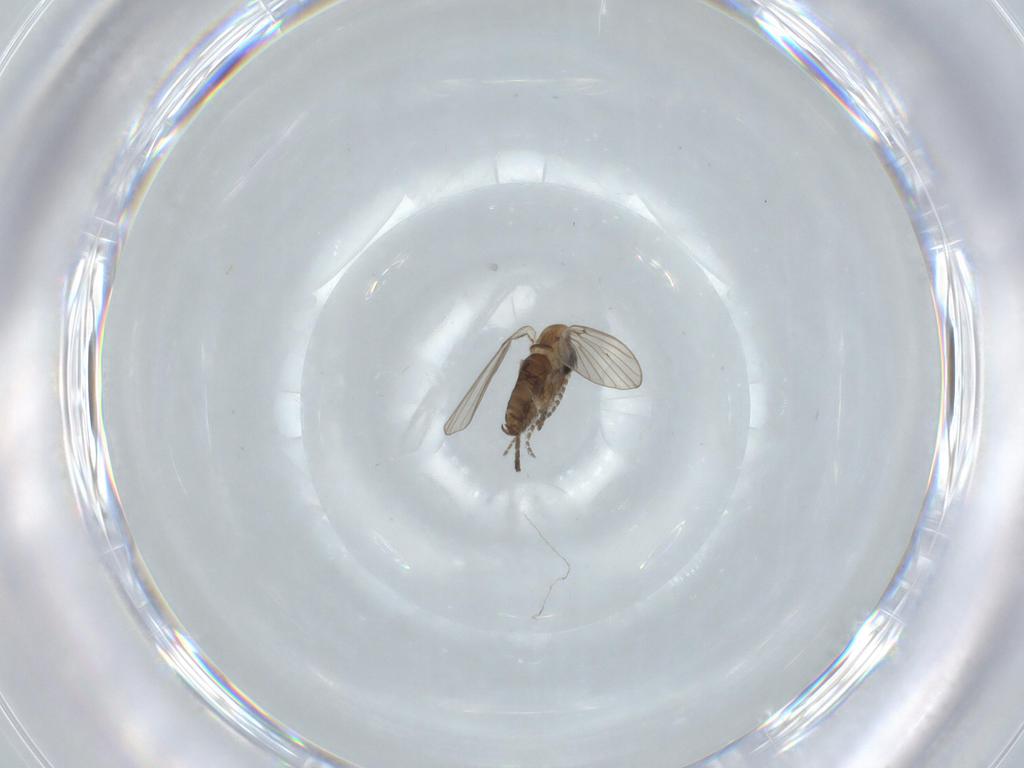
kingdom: Animalia
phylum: Arthropoda
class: Insecta
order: Diptera
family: Psychodidae
